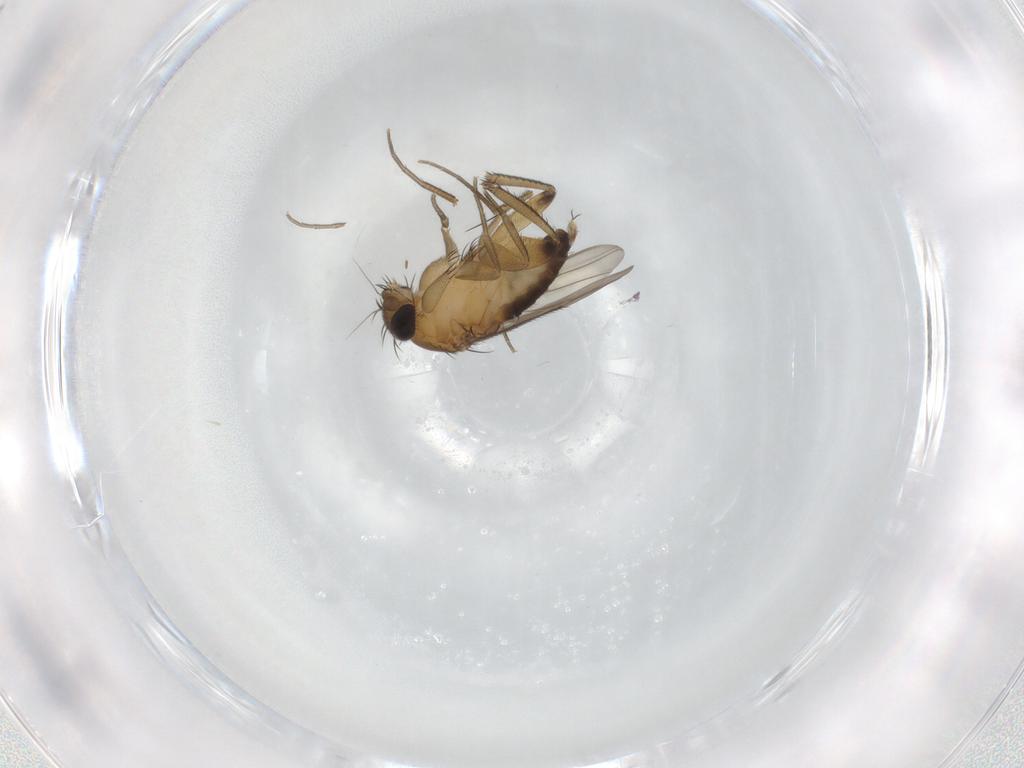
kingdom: Animalia
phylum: Arthropoda
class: Insecta
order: Diptera
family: Phoridae
